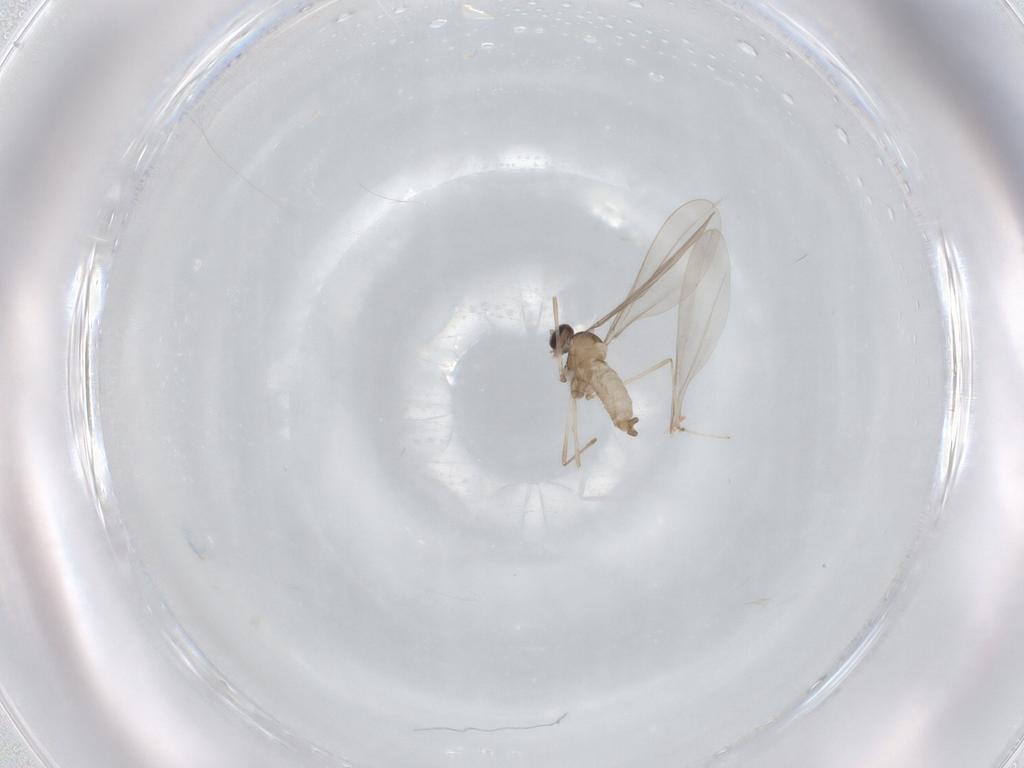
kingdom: Animalia
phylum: Arthropoda
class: Insecta
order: Diptera
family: Cecidomyiidae
